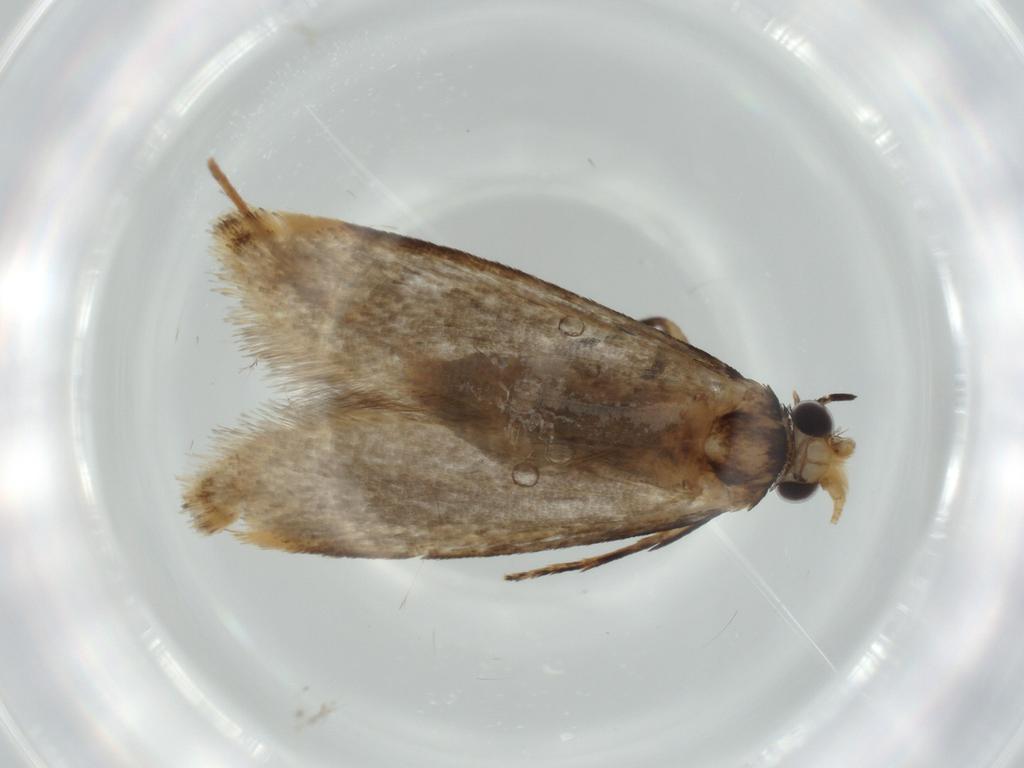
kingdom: Animalia
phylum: Arthropoda
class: Insecta
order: Lepidoptera
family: Tineidae
